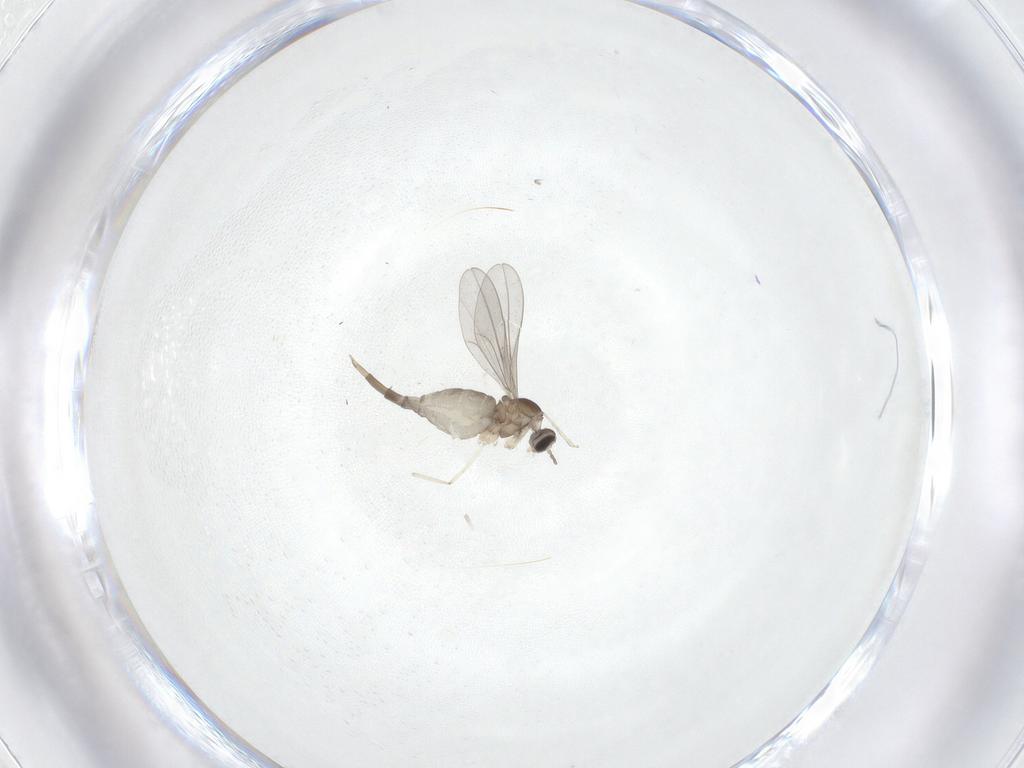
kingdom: Animalia
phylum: Arthropoda
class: Insecta
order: Diptera
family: Cecidomyiidae
